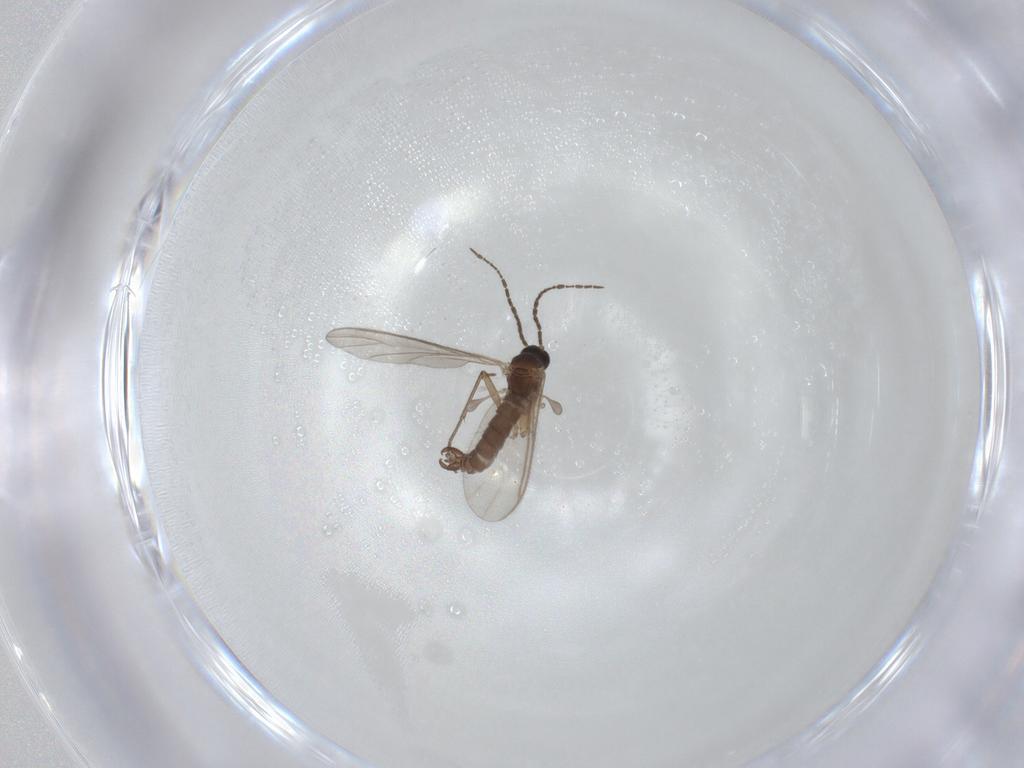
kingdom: Animalia
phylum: Arthropoda
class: Insecta
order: Diptera
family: Sciaridae
